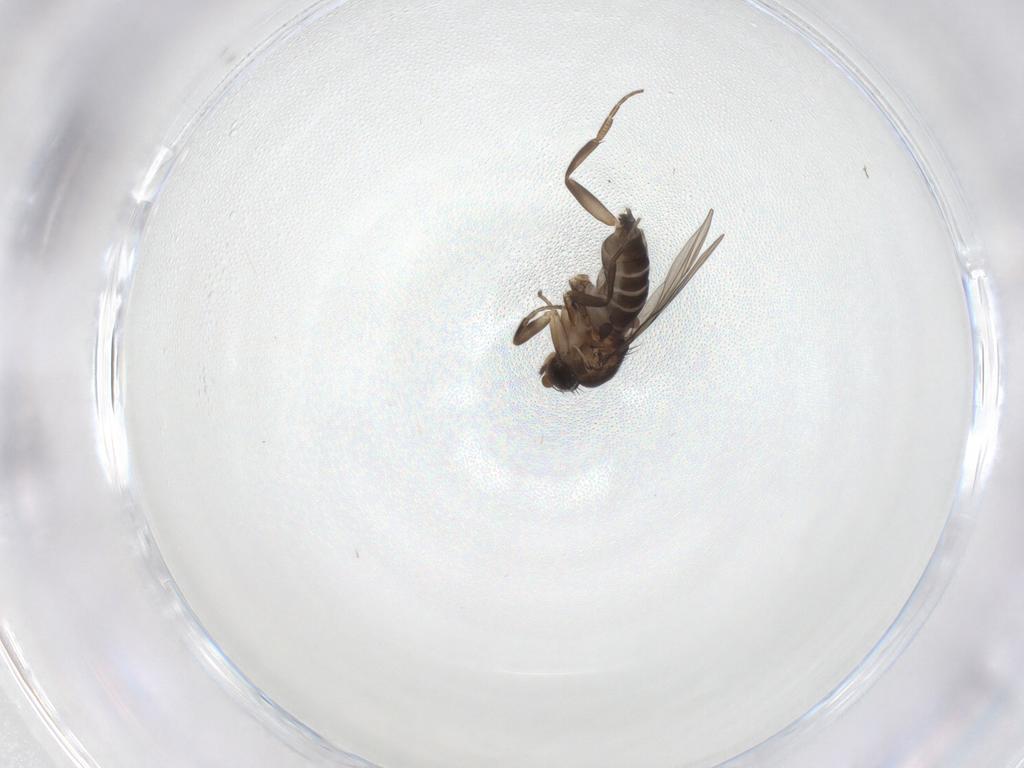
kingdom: Animalia
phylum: Arthropoda
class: Insecta
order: Diptera
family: Phoridae
